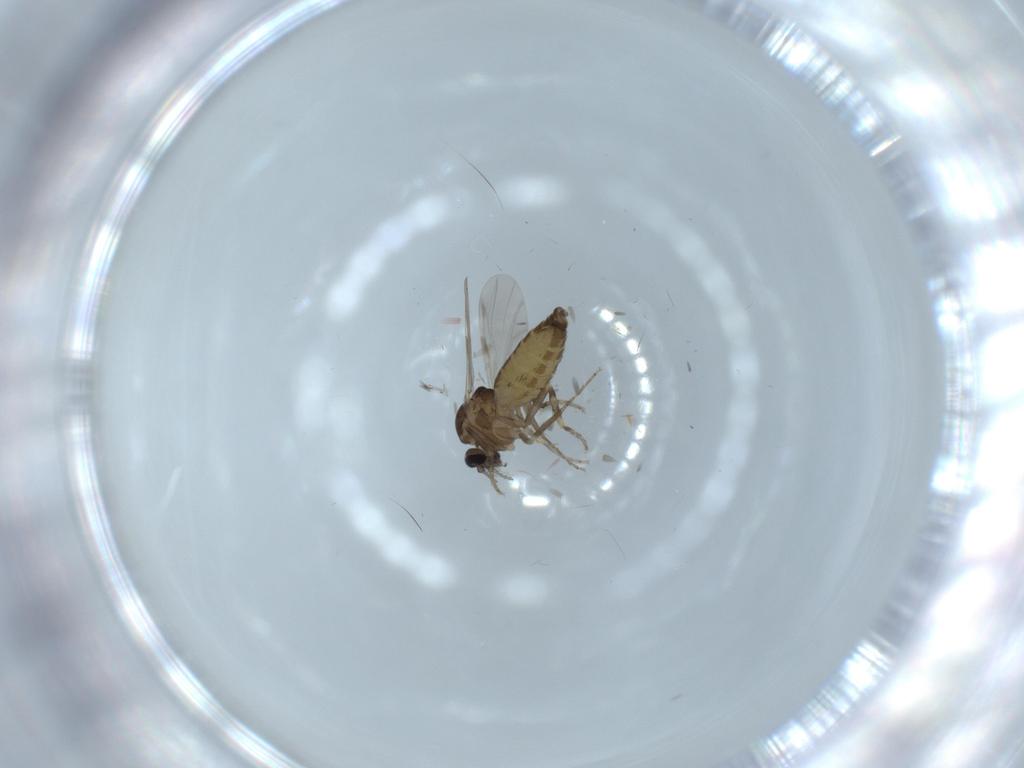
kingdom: Animalia
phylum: Arthropoda
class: Insecta
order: Diptera
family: Ceratopogonidae
